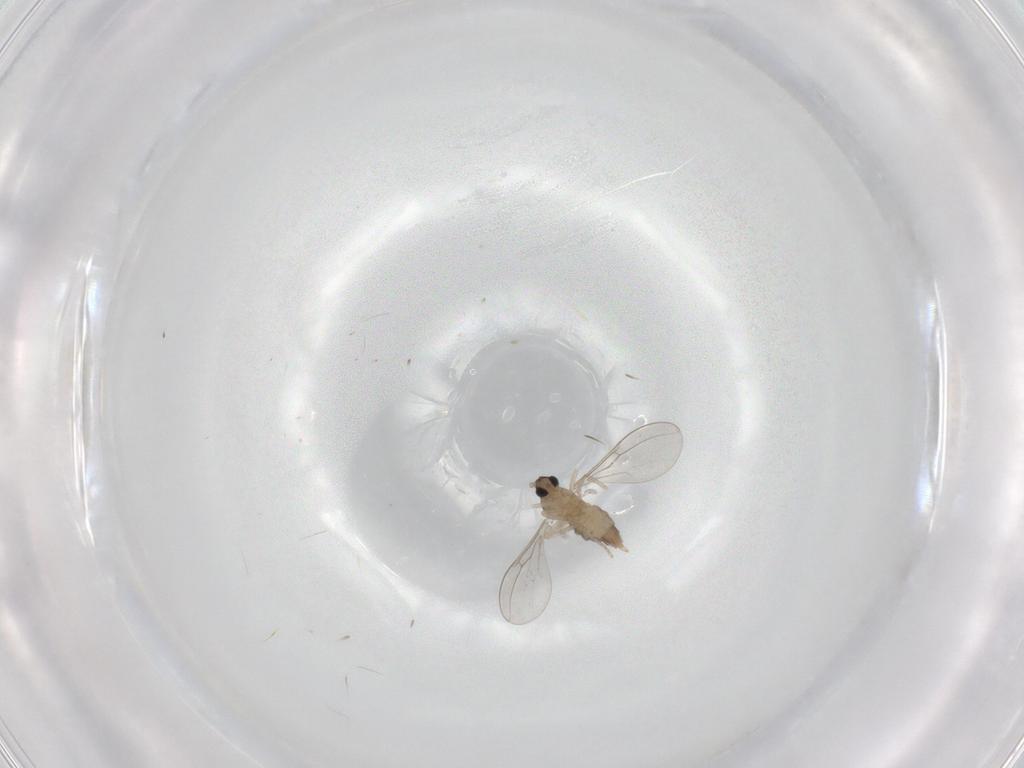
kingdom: Animalia
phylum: Arthropoda
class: Insecta
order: Diptera
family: Cecidomyiidae
